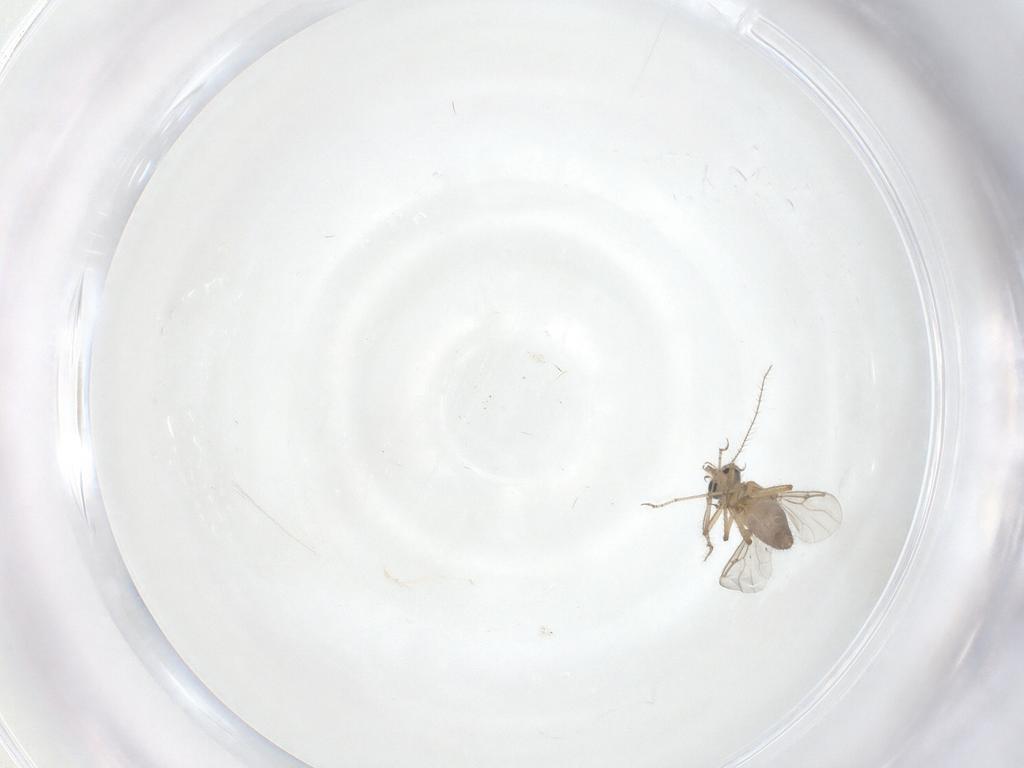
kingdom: Animalia
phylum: Arthropoda
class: Insecta
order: Diptera
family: Ceratopogonidae
